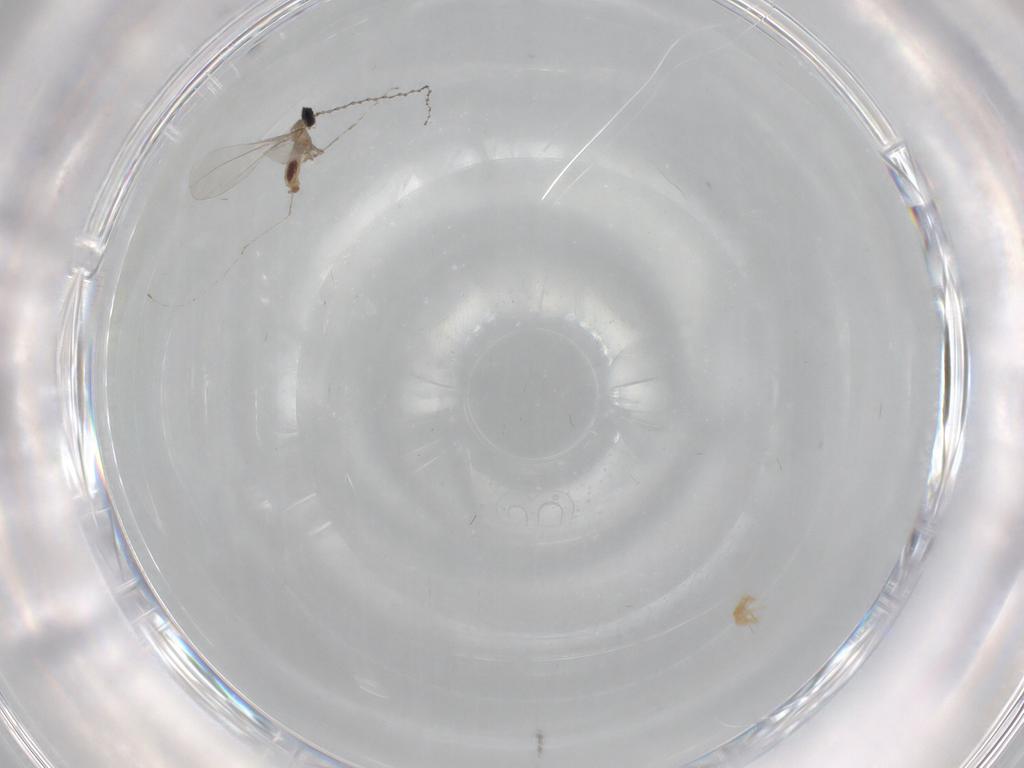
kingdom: Animalia
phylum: Arthropoda
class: Insecta
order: Diptera
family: Cecidomyiidae
